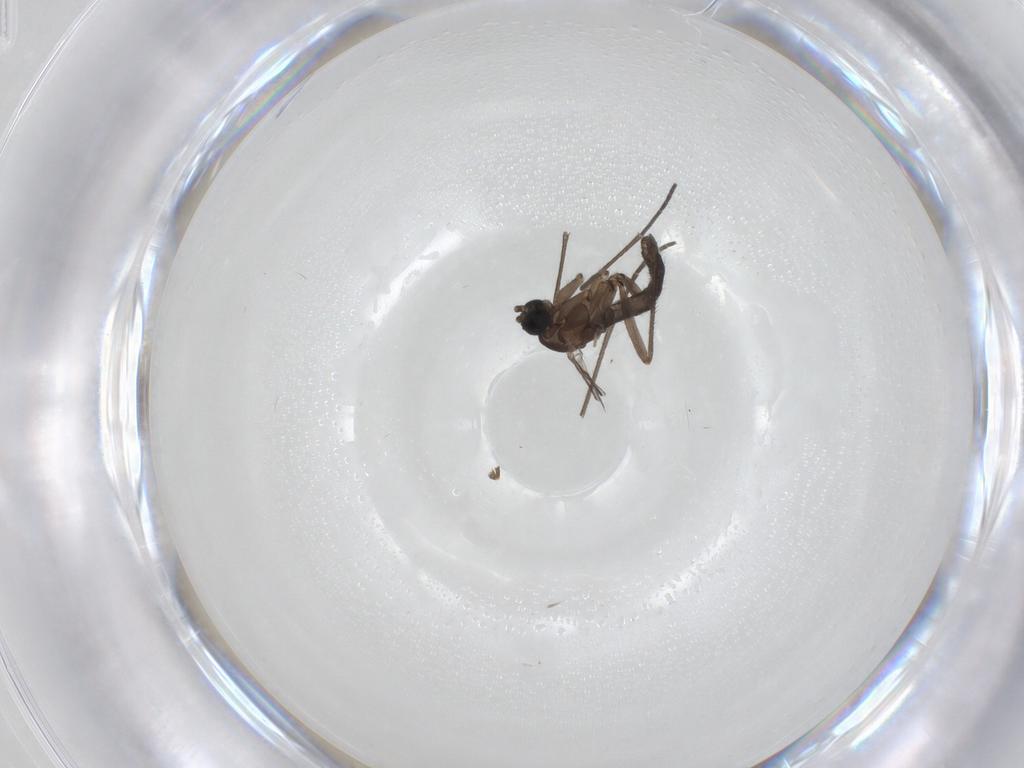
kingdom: Animalia
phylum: Arthropoda
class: Insecta
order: Diptera
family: Sciaridae
